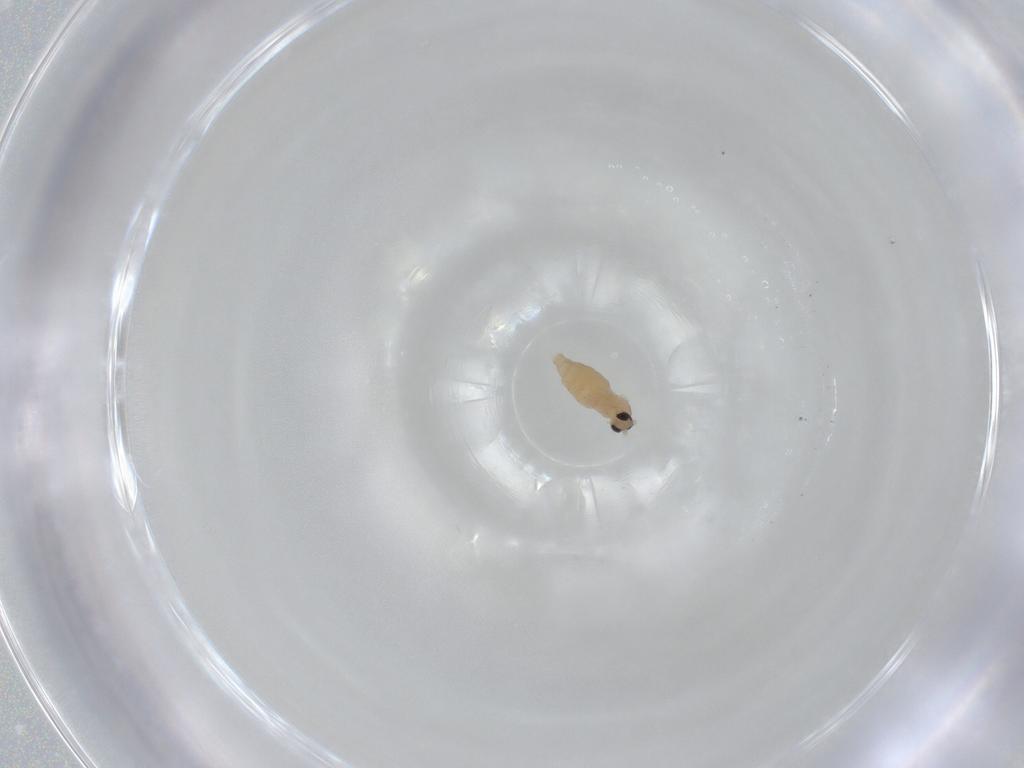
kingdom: Animalia
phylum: Arthropoda
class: Insecta
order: Diptera
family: Cecidomyiidae
